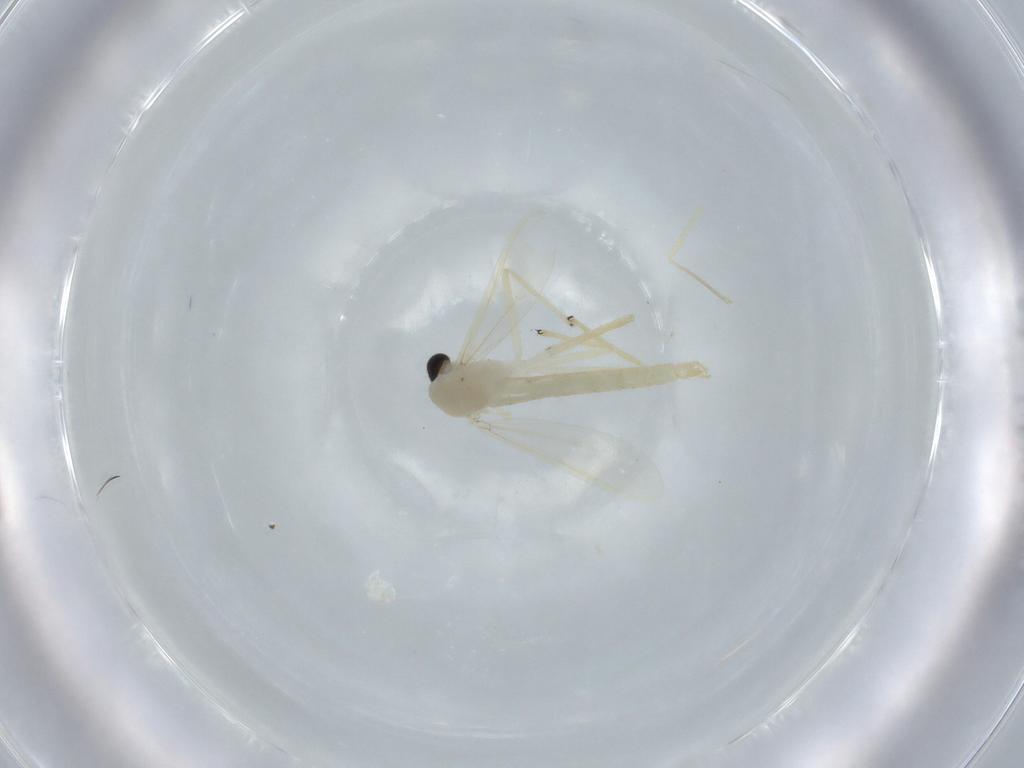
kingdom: Animalia
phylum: Arthropoda
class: Insecta
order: Diptera
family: Chironomidae
